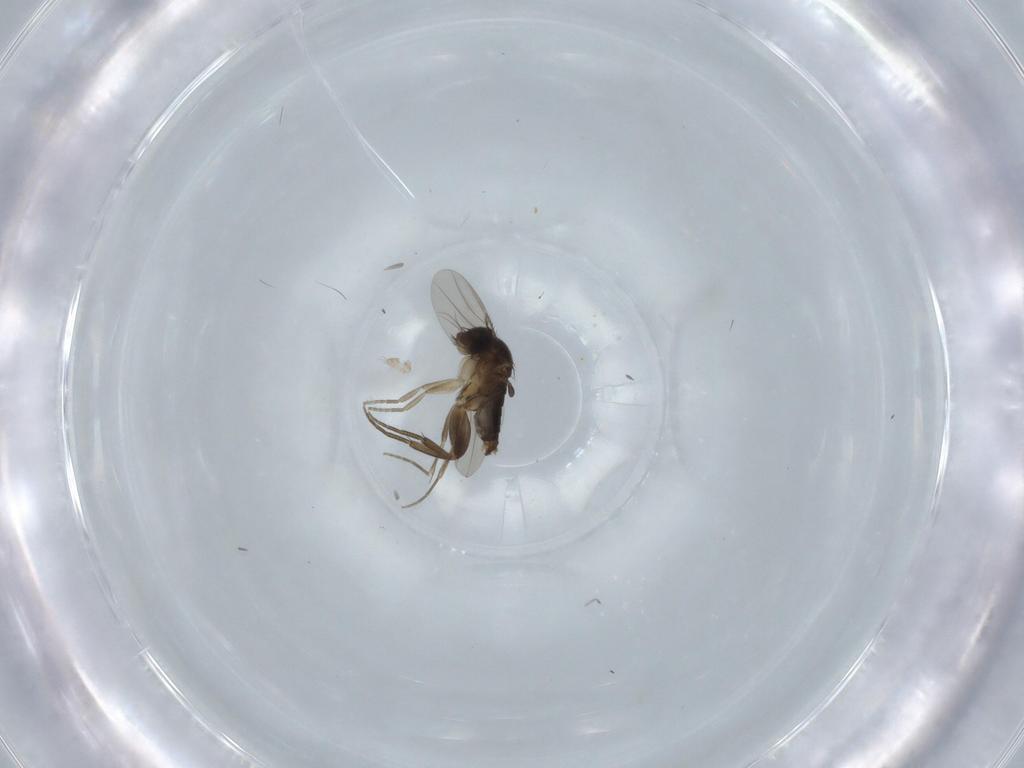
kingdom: Animalia
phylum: Arthropoda
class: Insecta
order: Diptera
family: Phoridae
